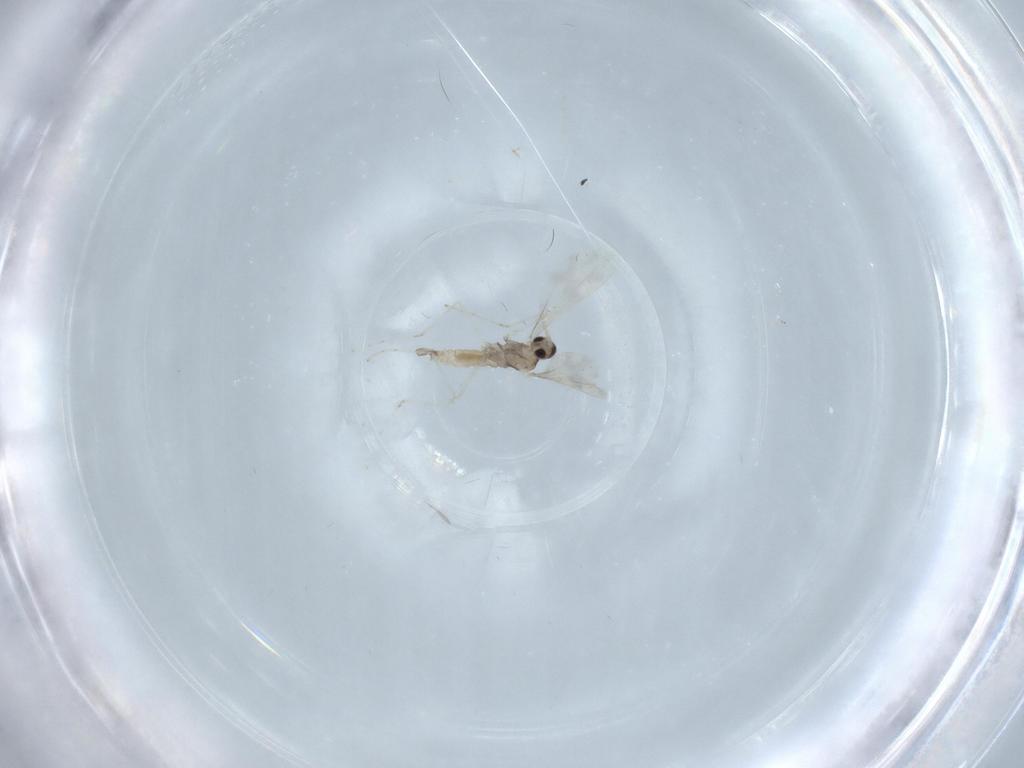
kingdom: Animalia
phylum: Arthropoda
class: Insecta
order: Diptera
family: Cecidomyiidae
